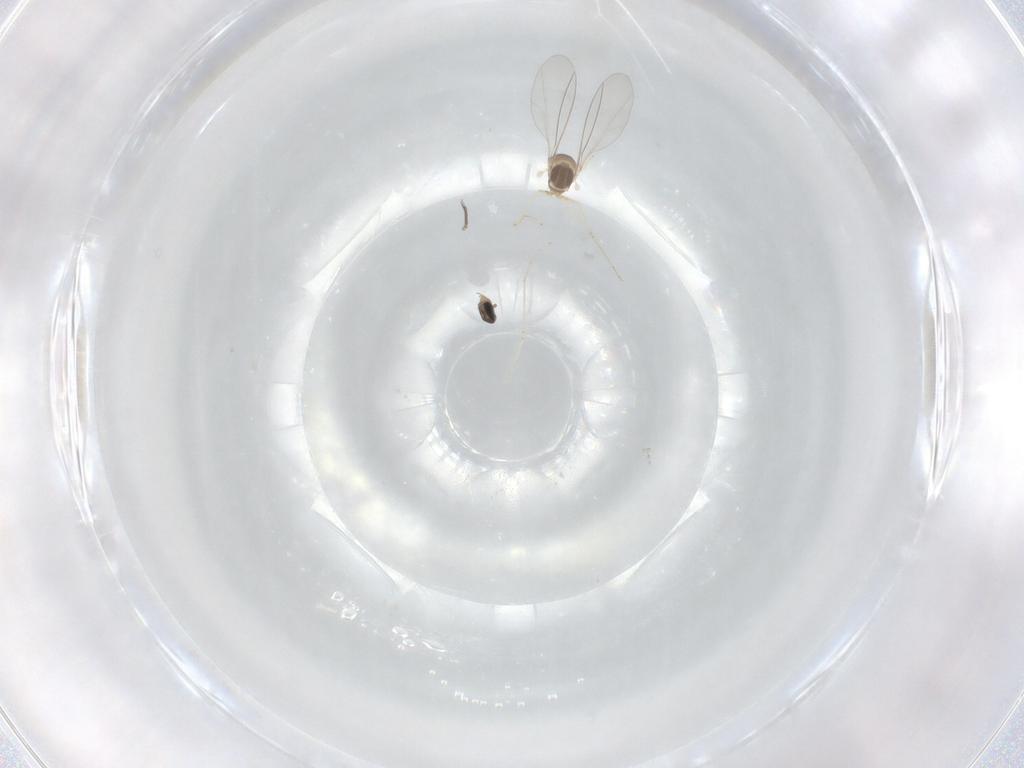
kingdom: Animalia
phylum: Arthropoda
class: Insecta
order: Diptera
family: Cecidomyiidae
